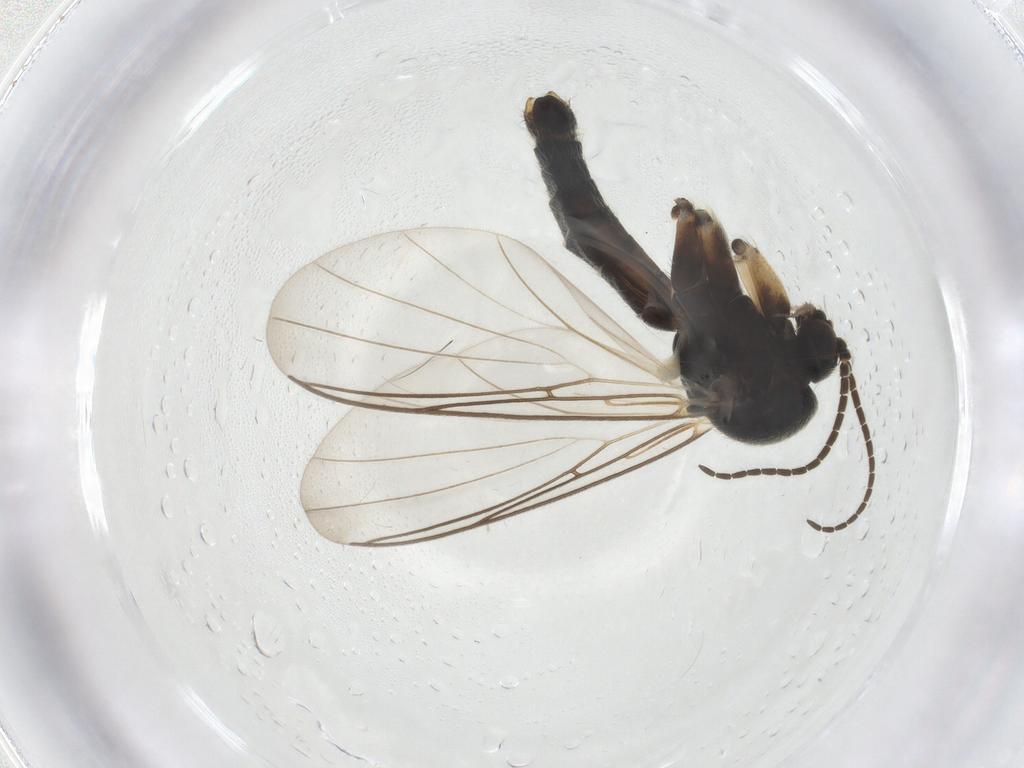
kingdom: Animalia
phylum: Arthropoda
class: Insecta
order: Diptera
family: Mycetophilidae
